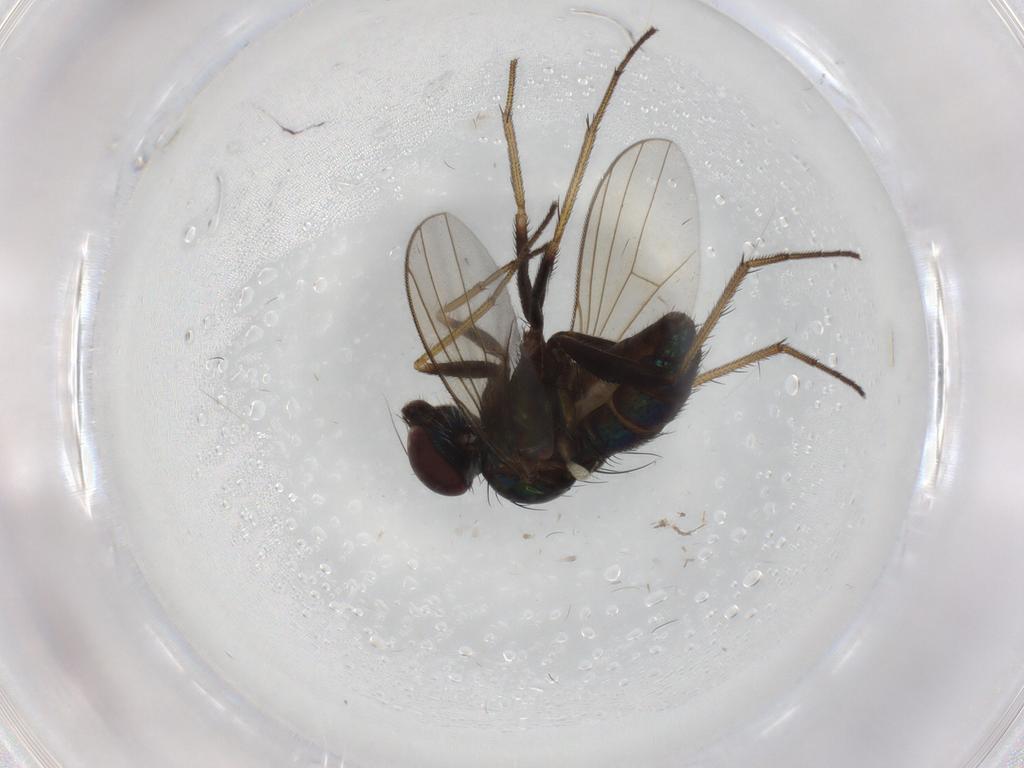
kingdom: Animalia
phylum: Arthropoda
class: Insecta
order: Diptera
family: Dolichopodidae
